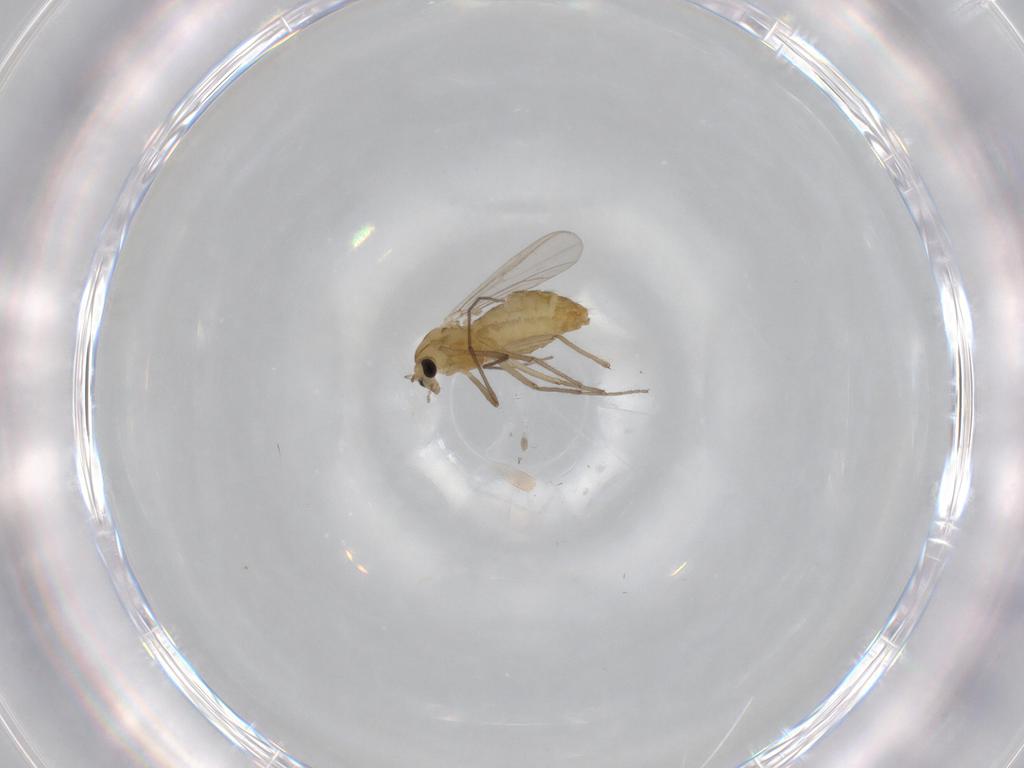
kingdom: Animalia
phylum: Arthropoda
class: Insecta
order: Diptera
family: Chironomidae
